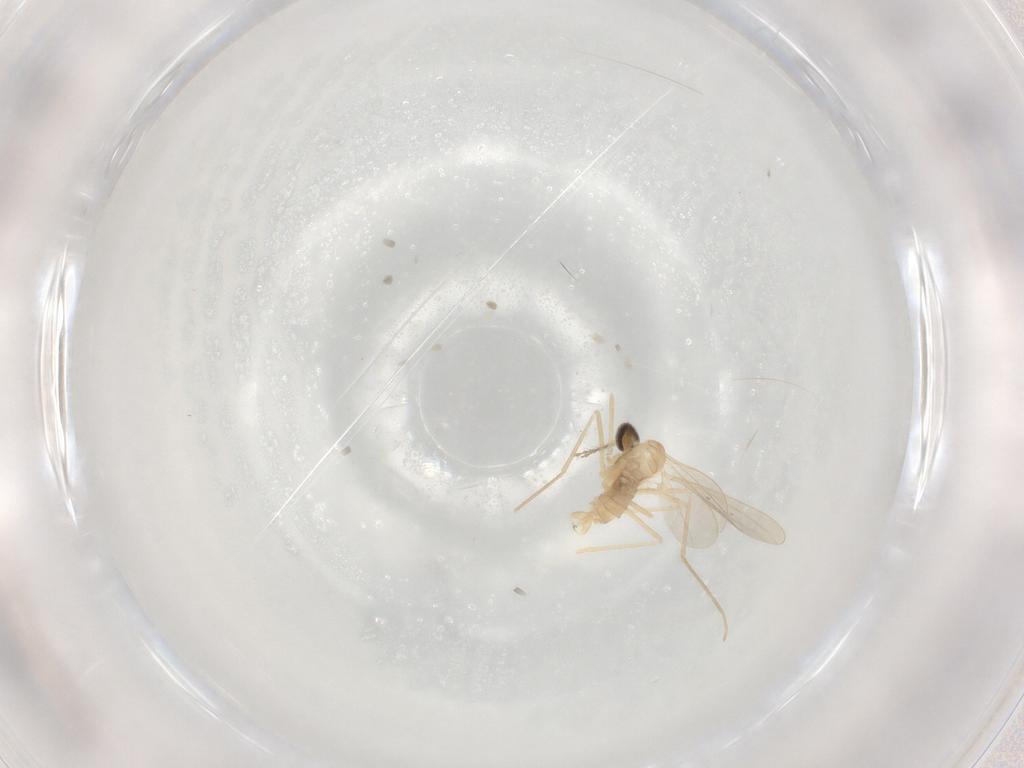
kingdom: Animalia
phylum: Arthropoda
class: Insecta
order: Diptera
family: Cecidomyiidae
